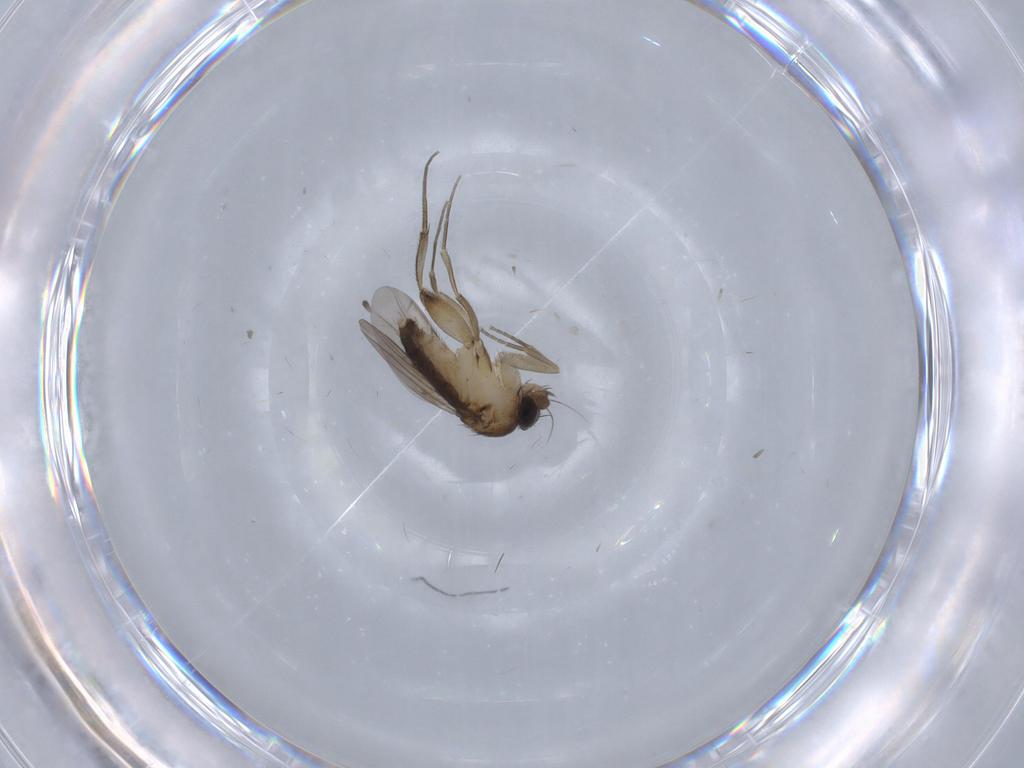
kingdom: Animalia
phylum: Arthropoda
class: Insecta
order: Diptera
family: Phoridae
